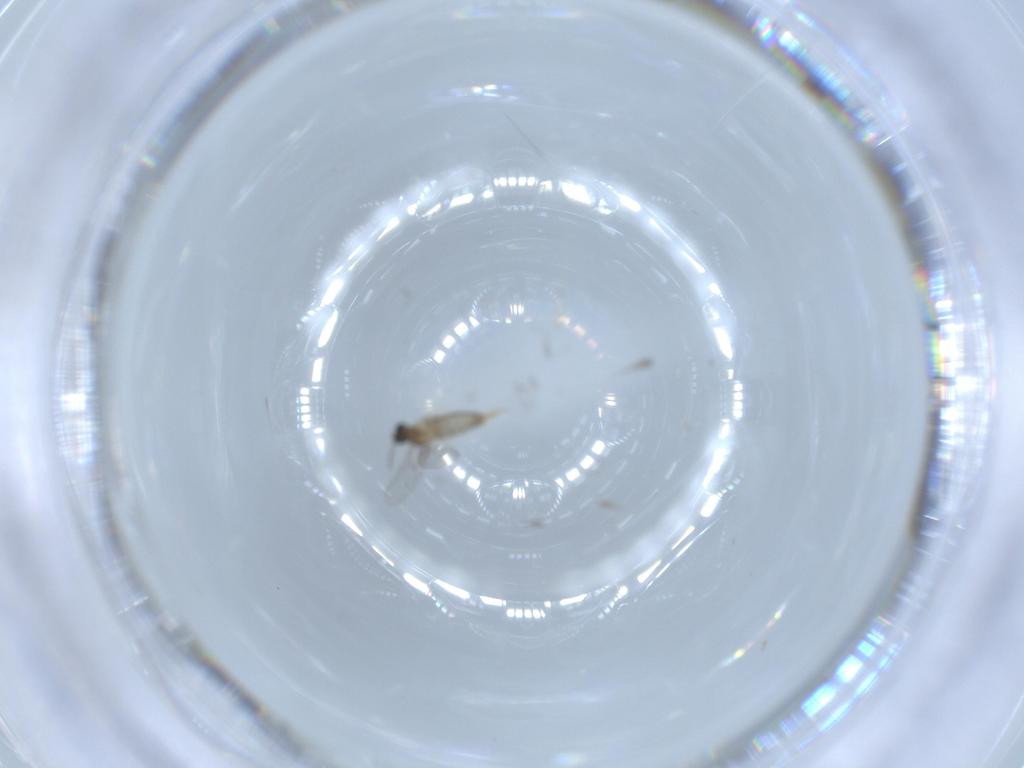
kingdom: Animalia
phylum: Arthropoda
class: Insecta
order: Diptera
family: Cecidomyiidae
